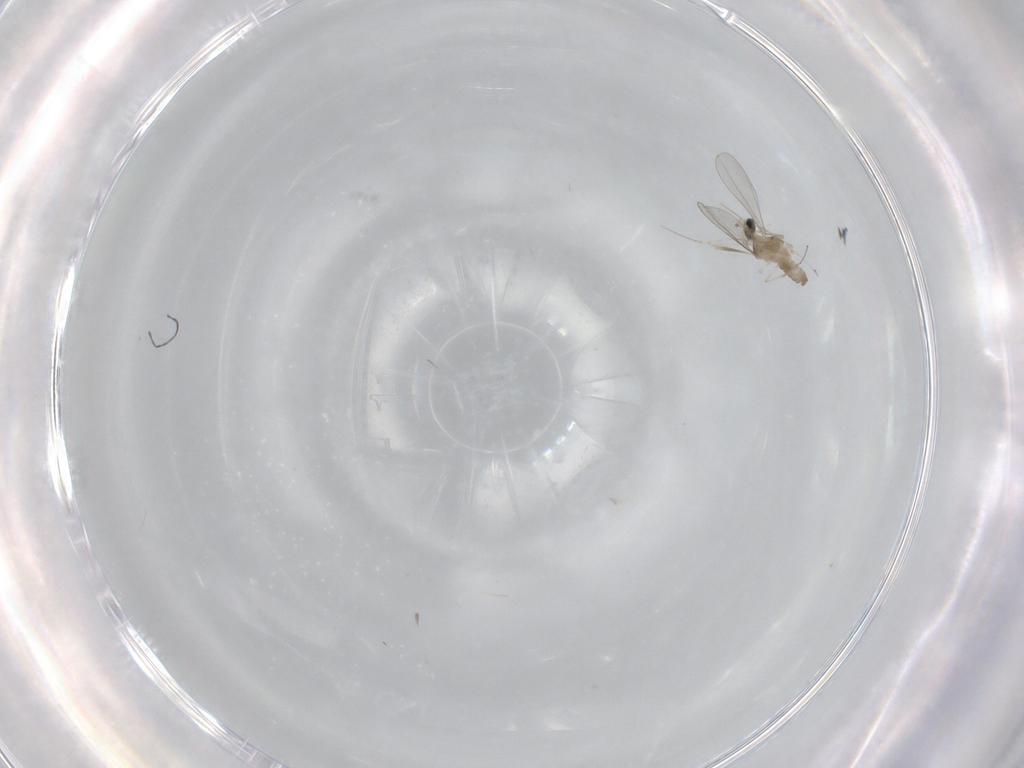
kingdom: Animalia
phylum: Arthropoda
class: Insecta
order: Diptera
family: Cecidomyiidae
